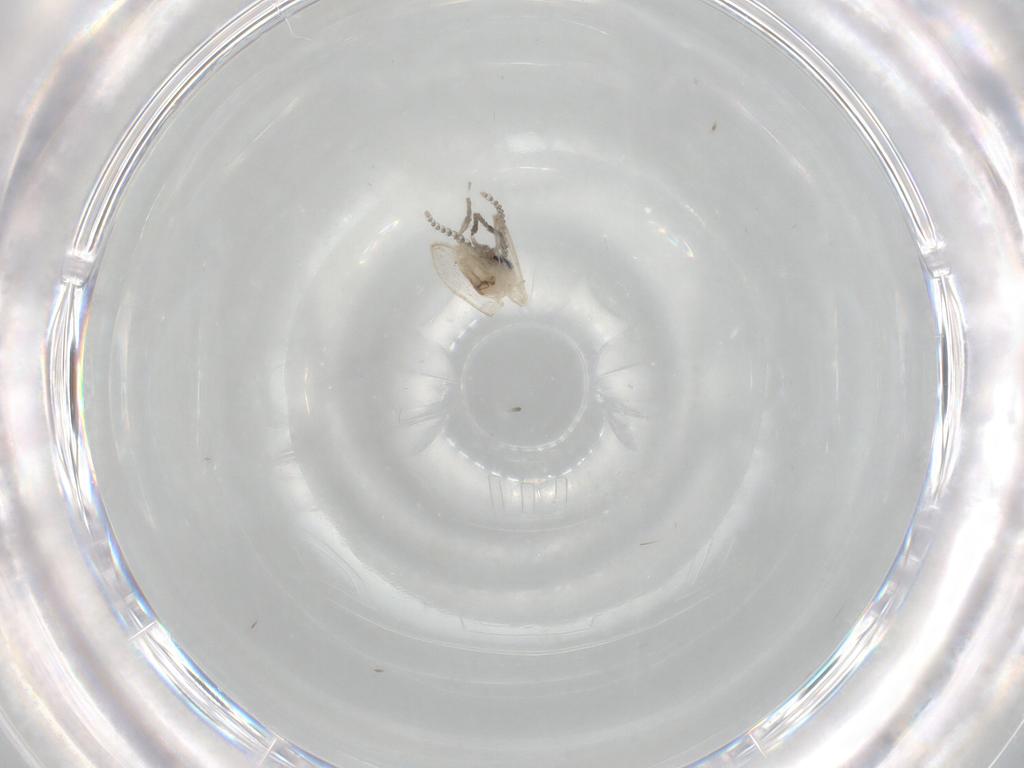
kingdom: Animalia
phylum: Arthropoda
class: Insecta
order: Diptera
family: Psychodidae
